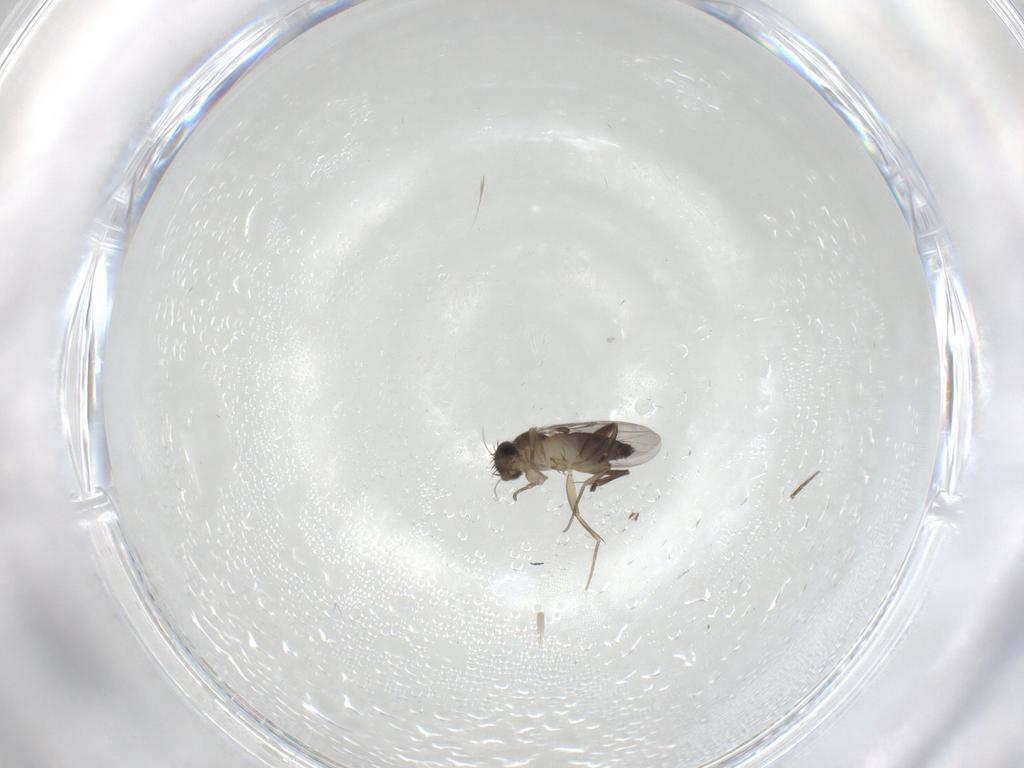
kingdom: Animalia
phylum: Arthropoda
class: Insecta
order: Diptera
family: Phoridae
